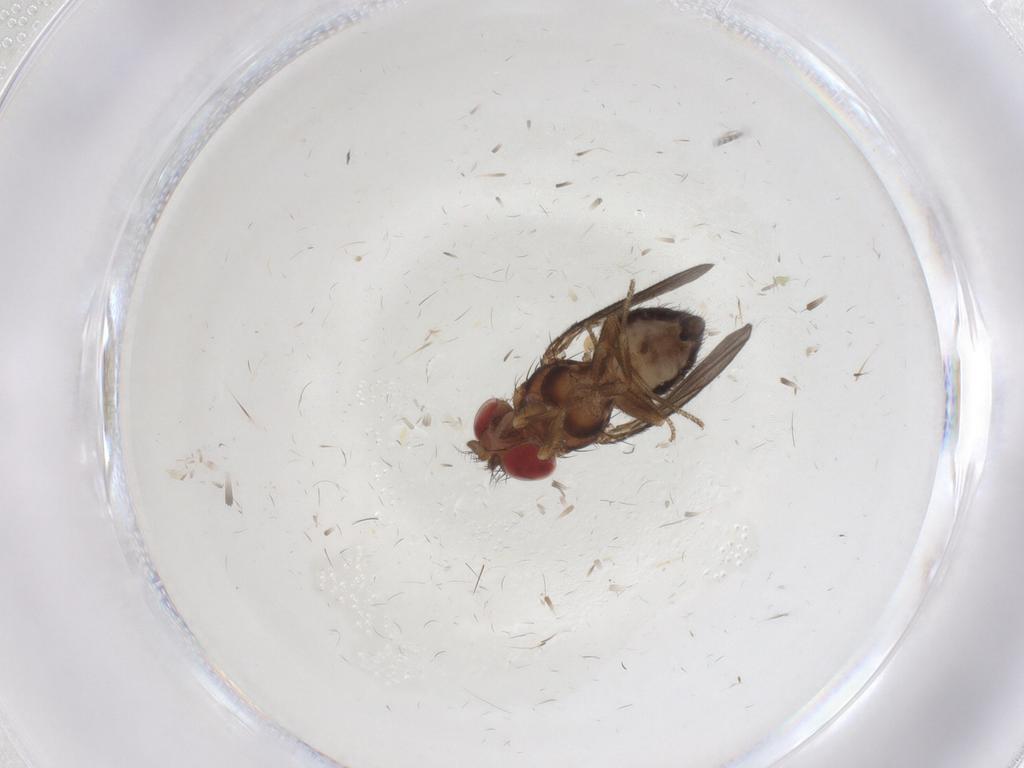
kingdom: Animalia
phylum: Arthropoda
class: Insecta
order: Diptera
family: Drosophilidae
